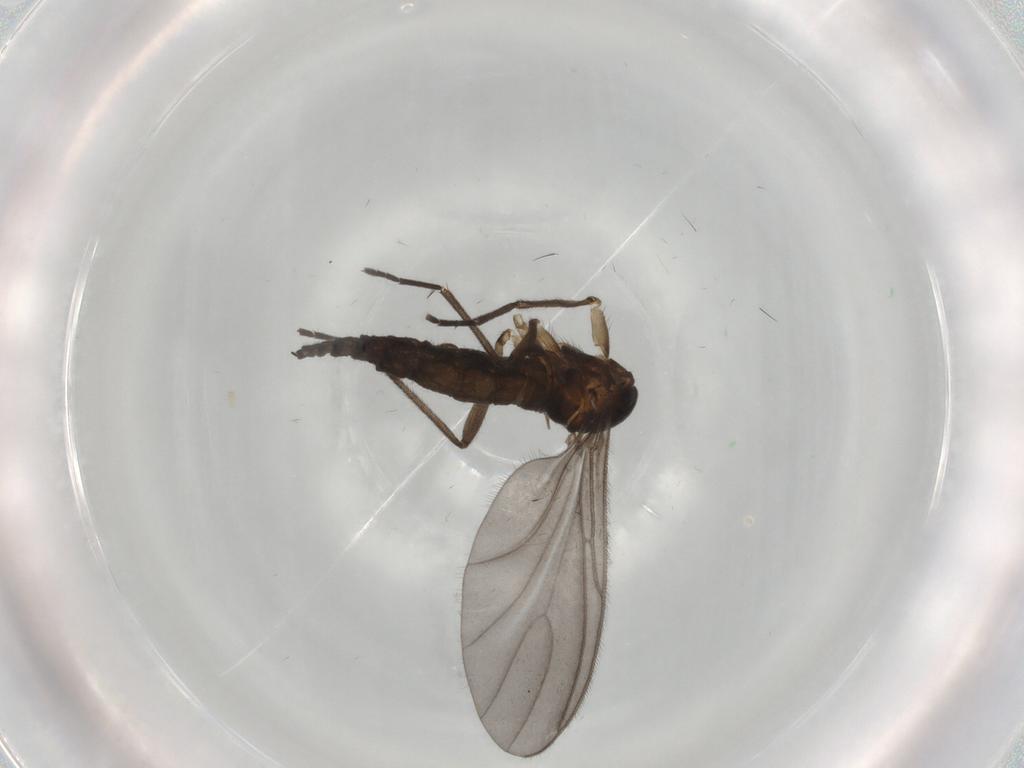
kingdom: Animalia
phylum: Arthropoda
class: Insecta
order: Diptera
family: Sciaridae
